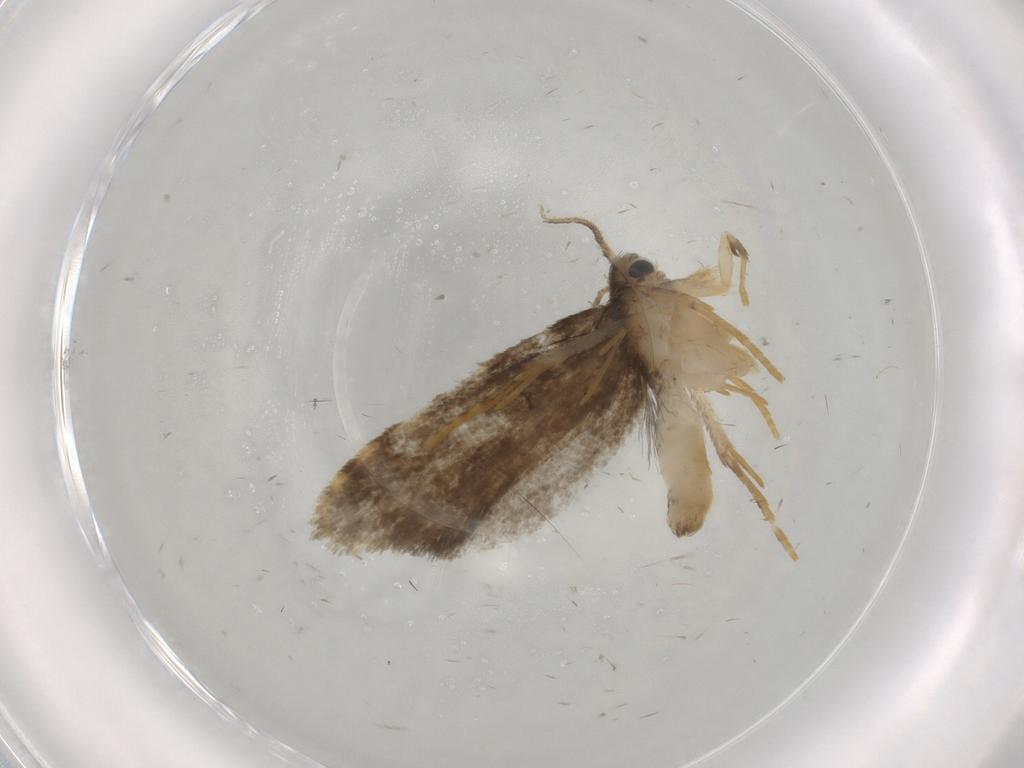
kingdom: Animalia
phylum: Arthropoda
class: Insecta
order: Lepidoptera
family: Psychidae
